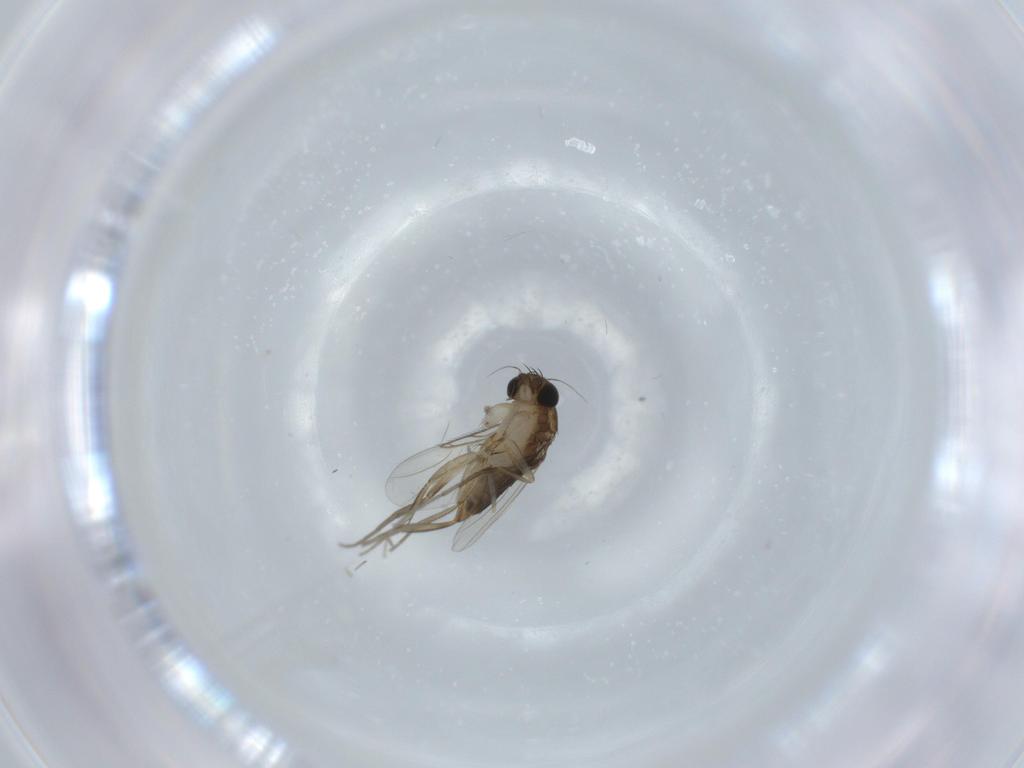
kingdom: Animalia
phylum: Arthropoda
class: Insecta
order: Diptera
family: Chironomidae
